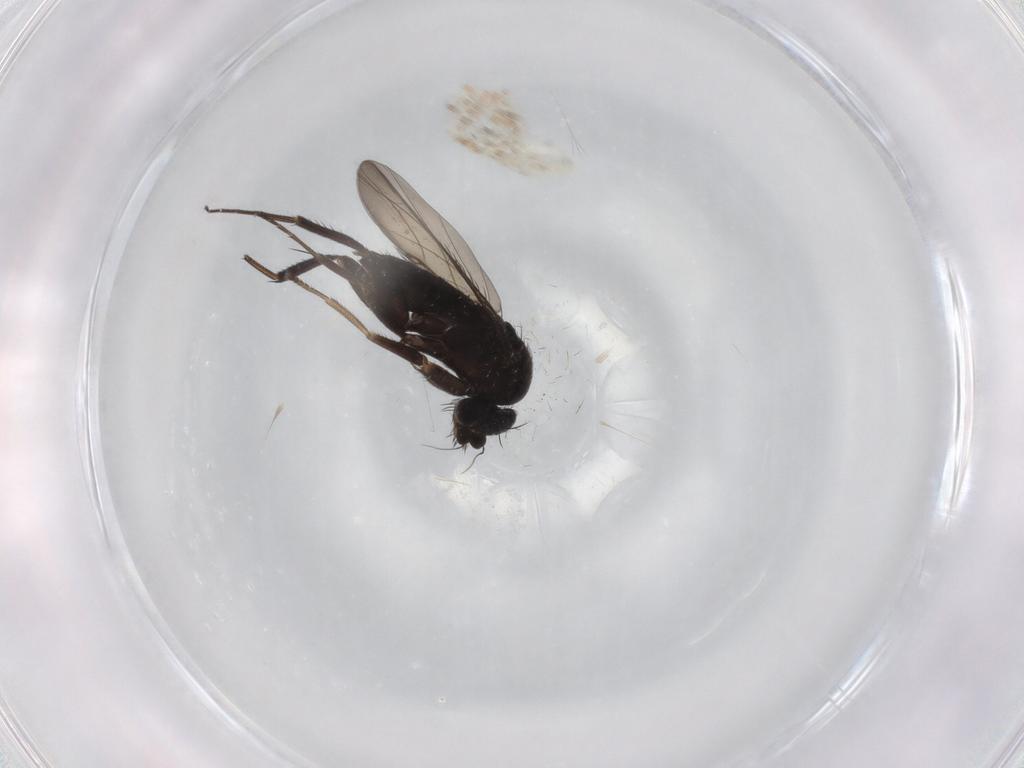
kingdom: Animalia
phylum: Arthropoda
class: Insecta
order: Diptera
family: Phoridae
